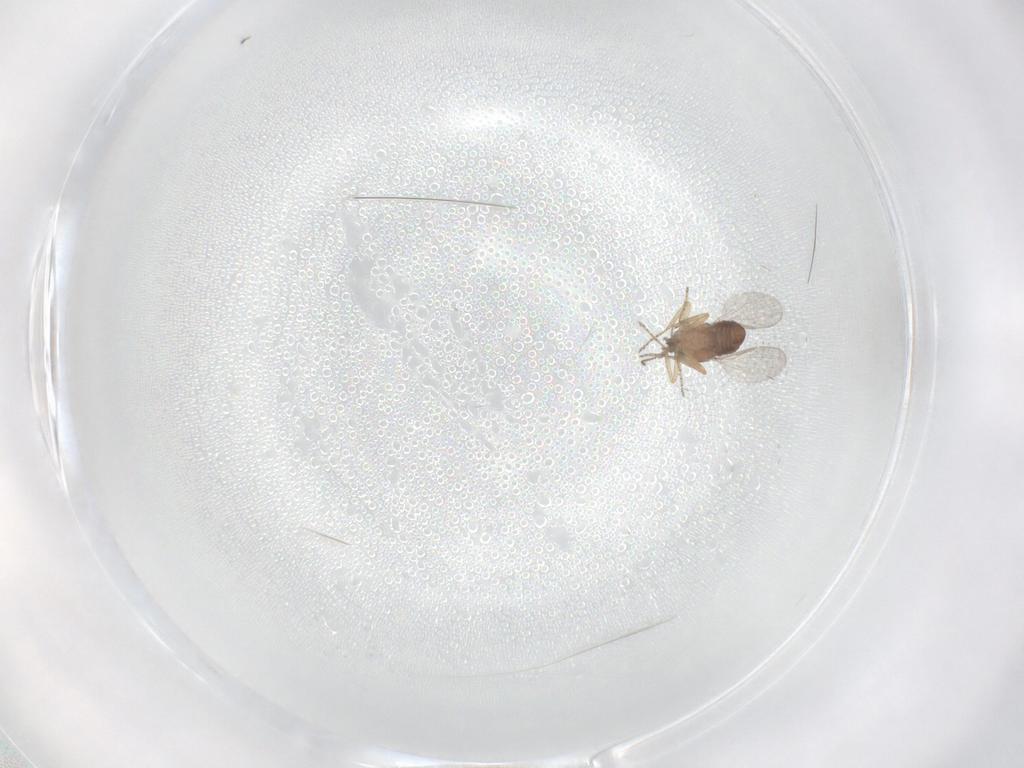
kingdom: Animalia
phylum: Arthropoda
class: Insecta
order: Diptera
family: Ceratopogonidae
